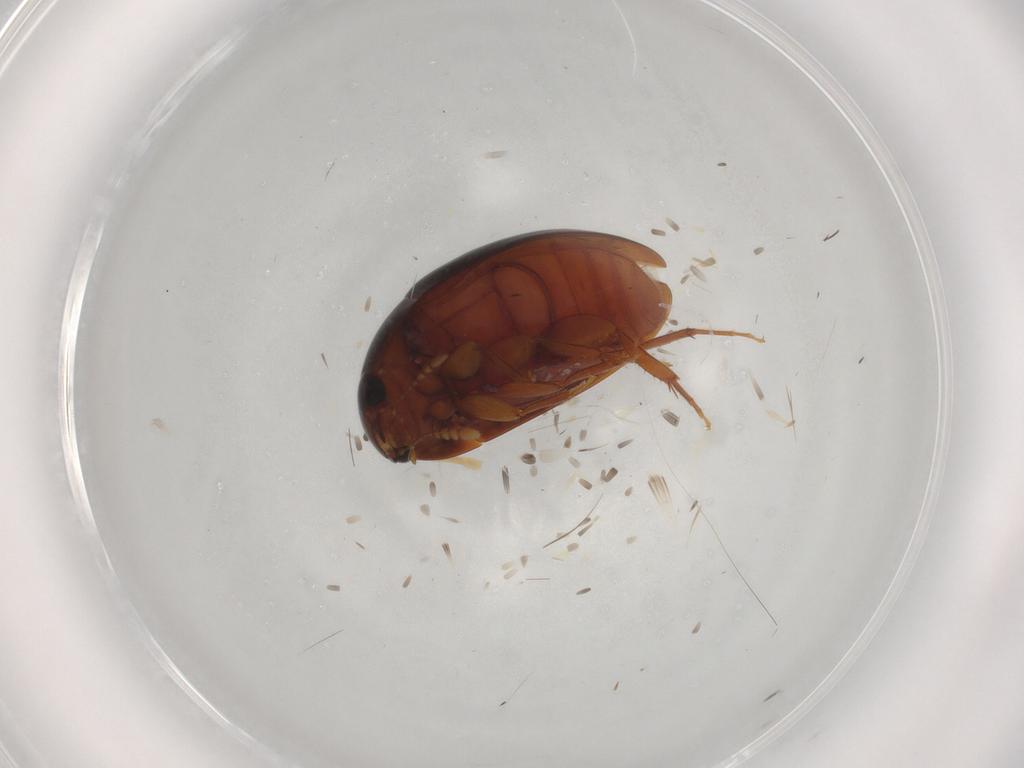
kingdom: Animalia
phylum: Arthropoda
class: Insecta
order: Coleoptera
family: Phalacridae
